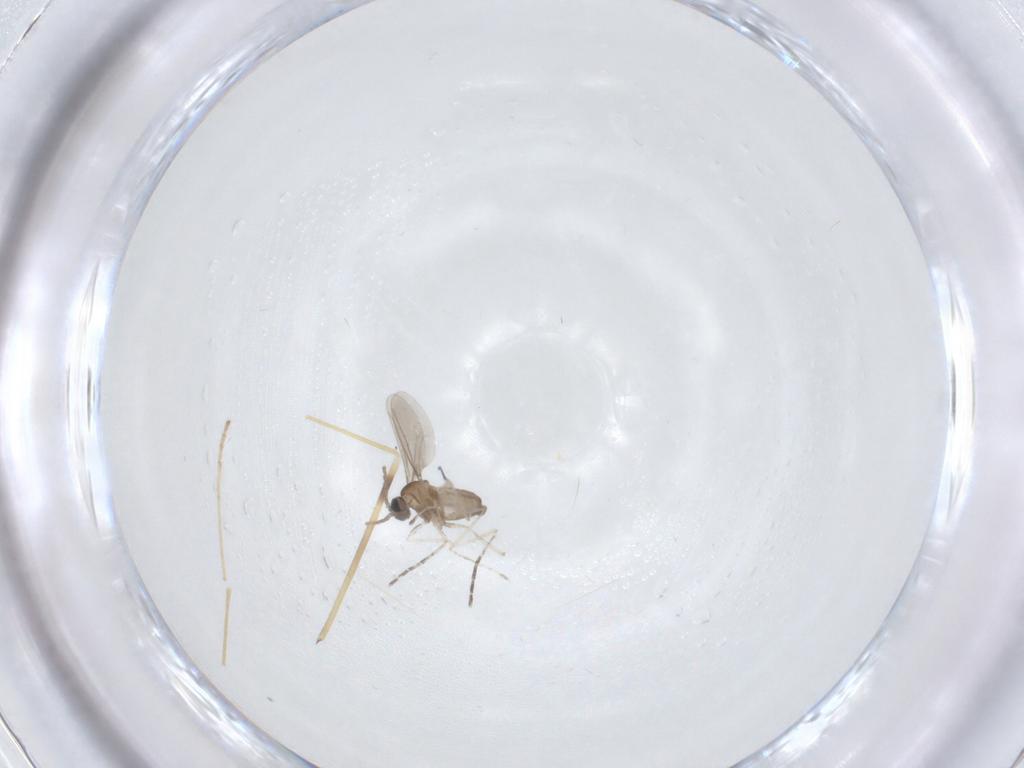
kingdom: Animalia
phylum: Arthropoda
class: Insecta
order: Diptera
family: Cecidomyiidae
